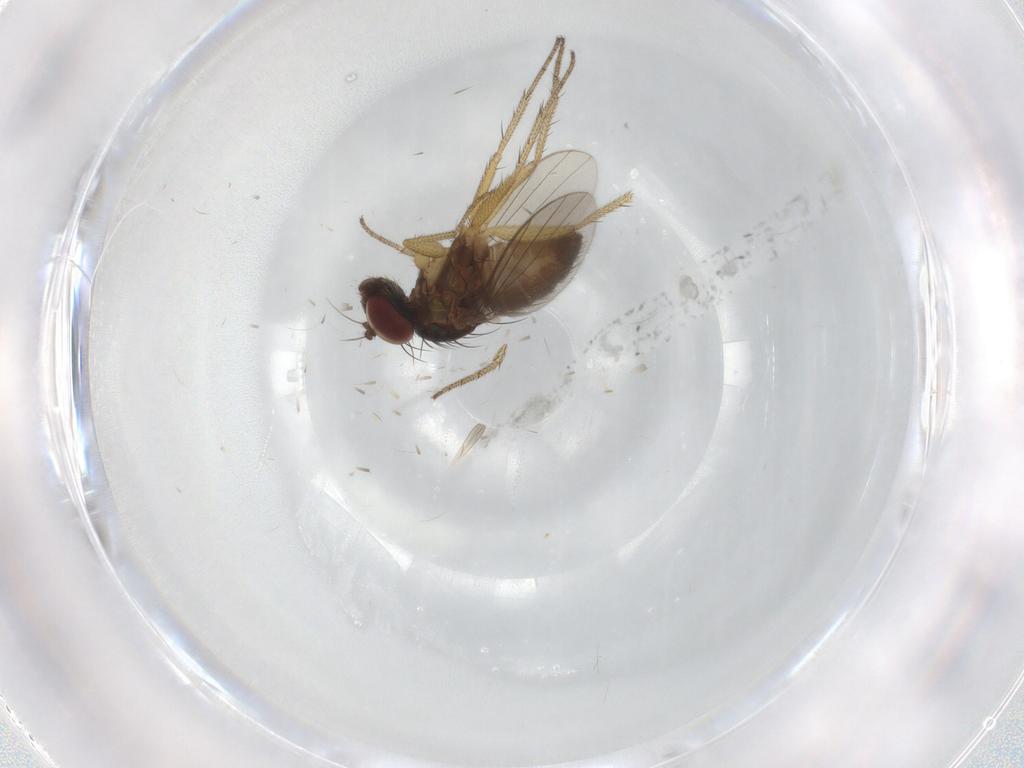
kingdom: Animalia
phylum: Arthropoda
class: Insecta
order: Diptera
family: Dolichopodidae
